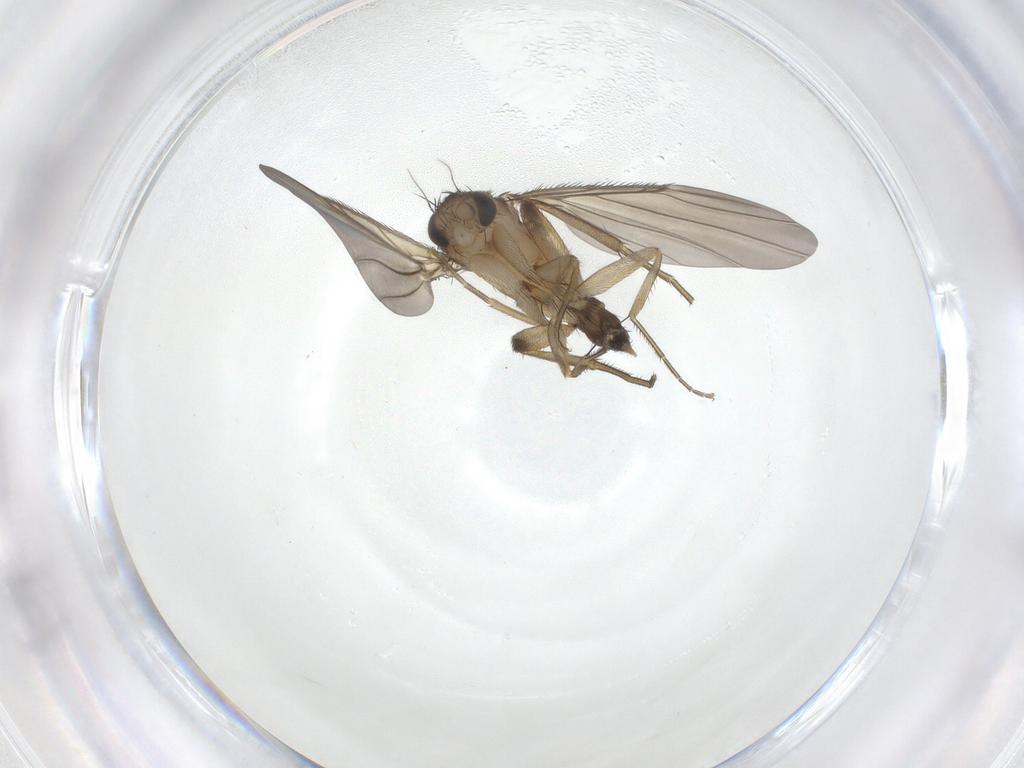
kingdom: Animalia
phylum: Arthropoda
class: Insecta
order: Diptera
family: Phoridae
